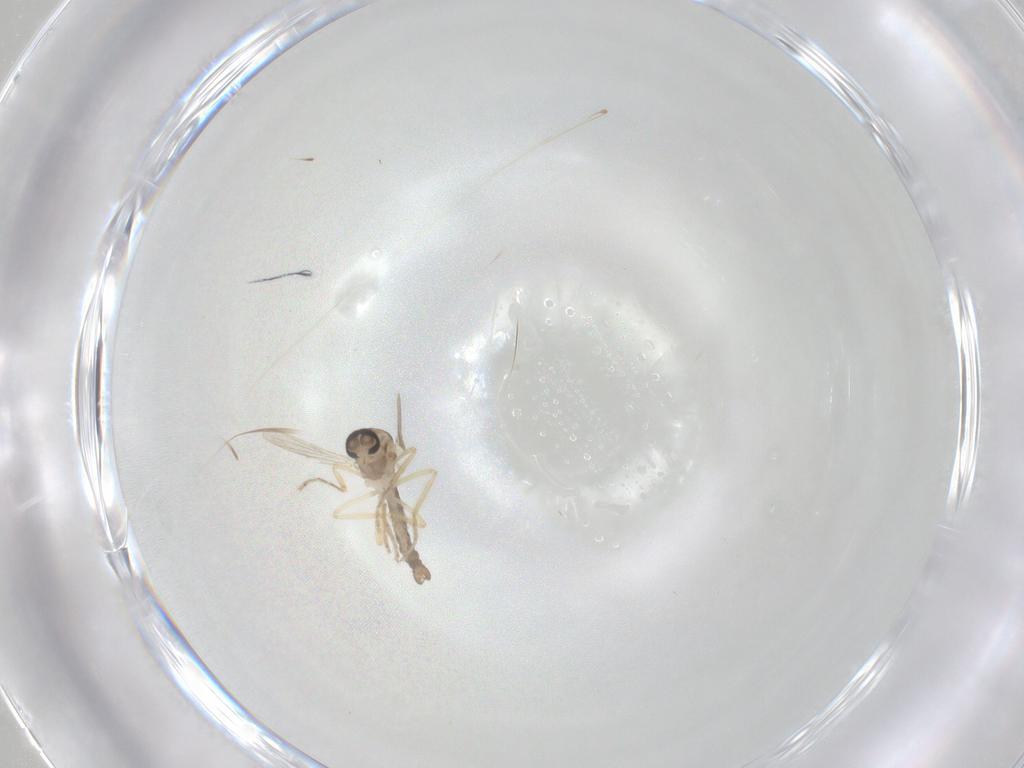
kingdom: Animalia
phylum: Arthropoda
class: Insecta
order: Diptera
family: Ceratopogonidae
